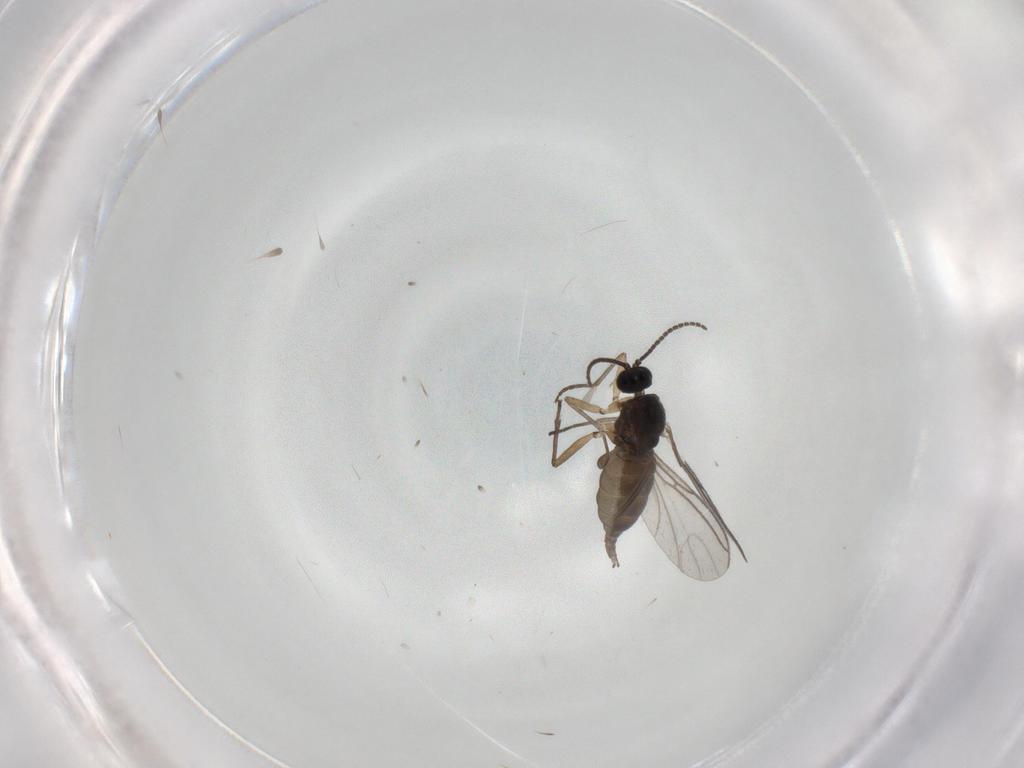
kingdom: Animalia
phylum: Arthropoda
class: Insecta
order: Diptera
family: Sciaridae
